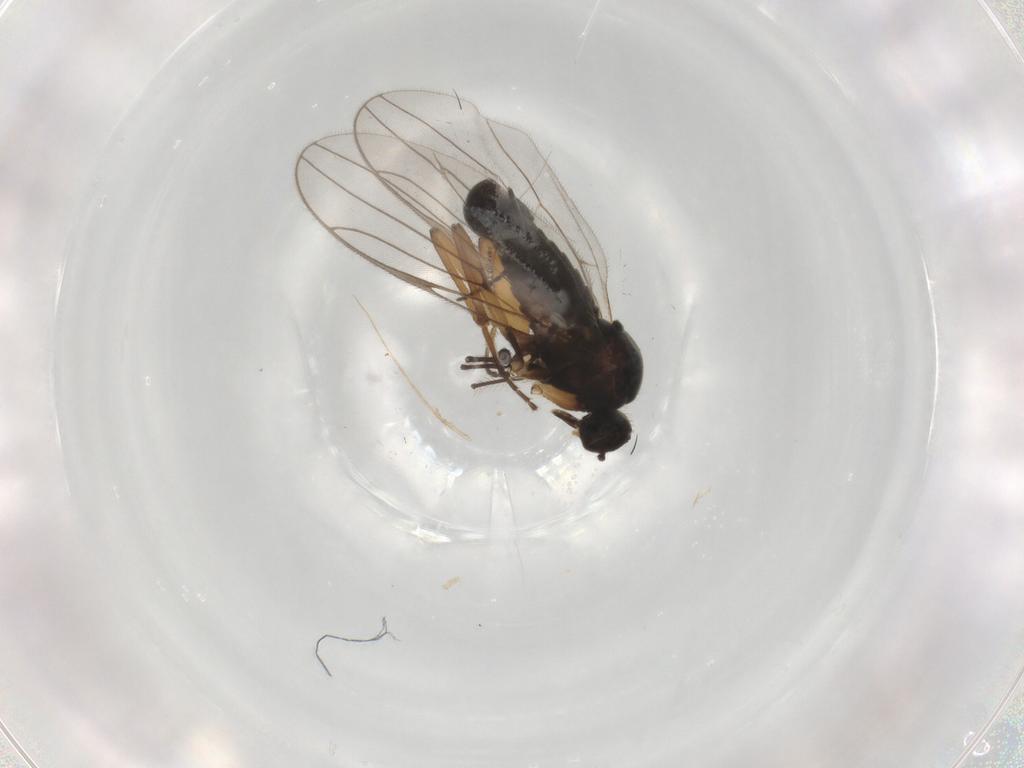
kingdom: Animalia
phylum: Arthropoda
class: Insecta
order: Diptera
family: Hybotidae
